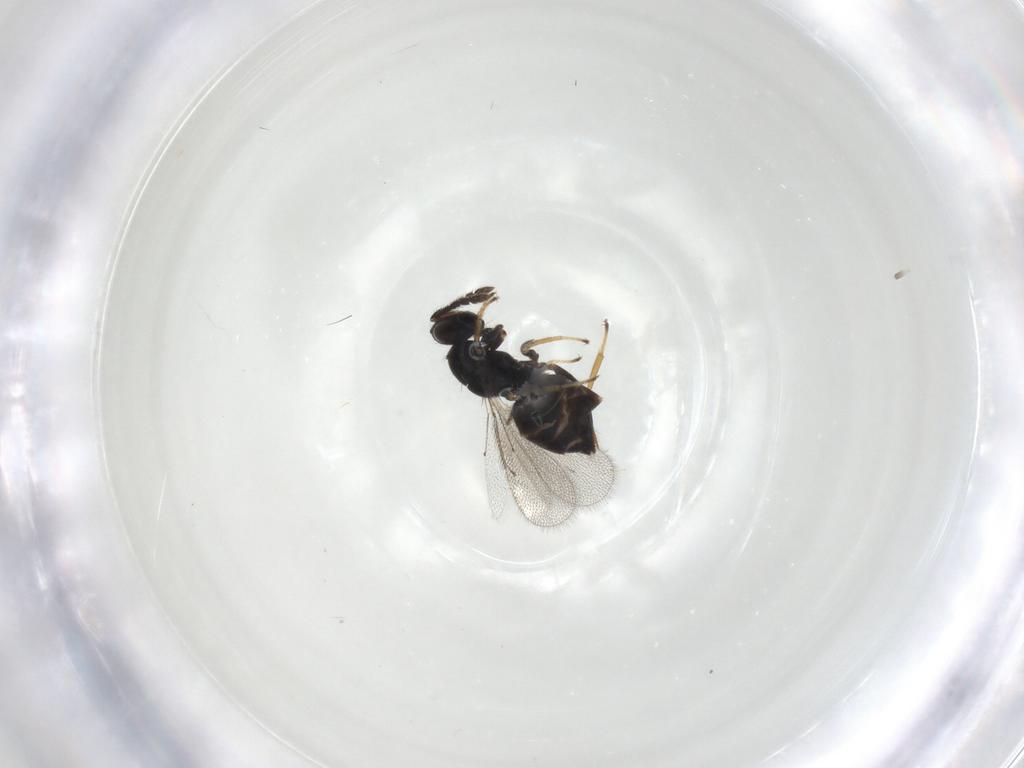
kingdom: Animalia
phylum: Arthropoda
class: Insecta
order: Hymenoptera
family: Eulophidae
